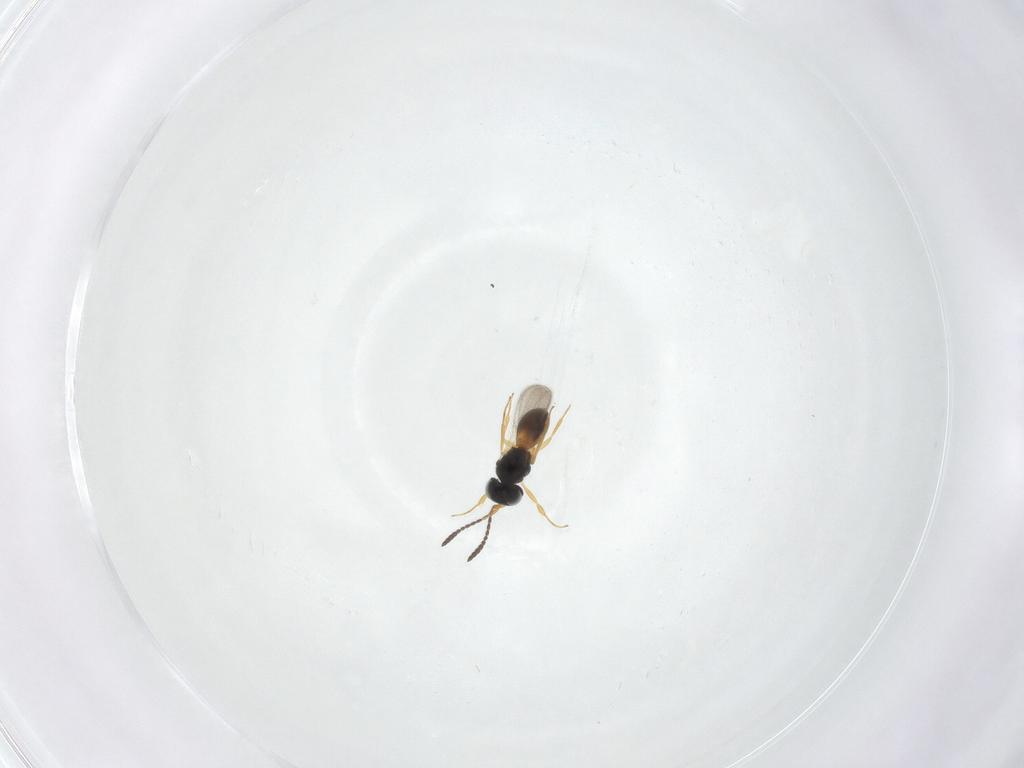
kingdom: Animalia
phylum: Arthropoda
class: Insecta
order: Hymenoptera
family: Scelionidae
